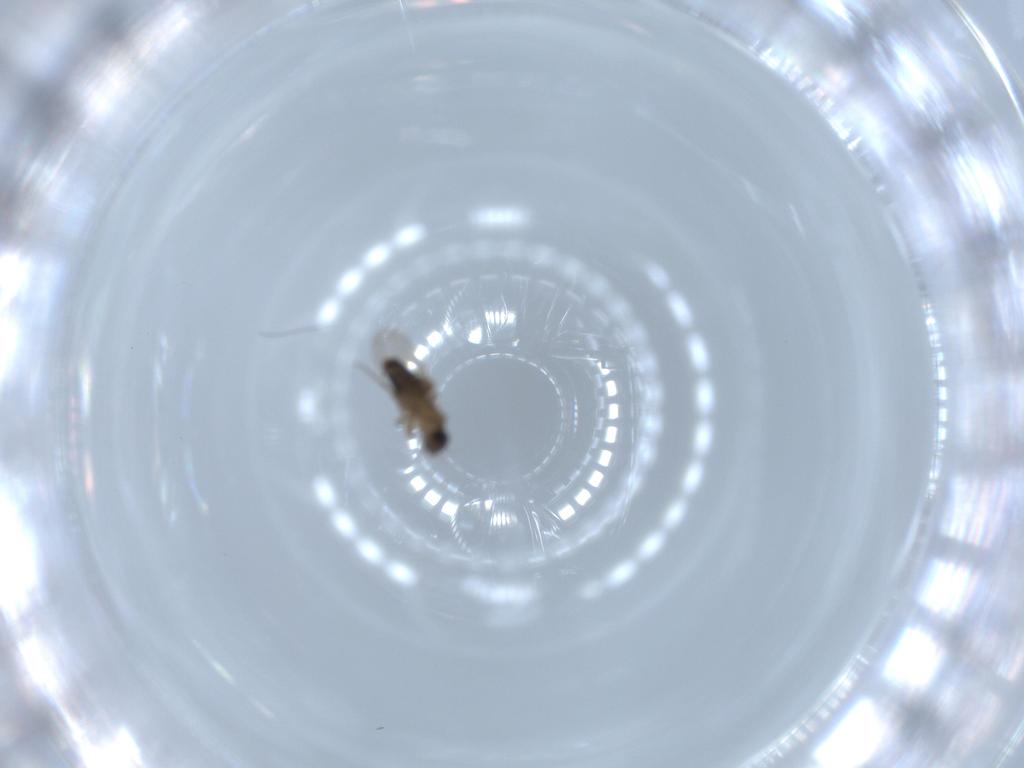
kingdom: Animalia
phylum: Arthropoda
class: Insecta
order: Diptera
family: Phoridae
